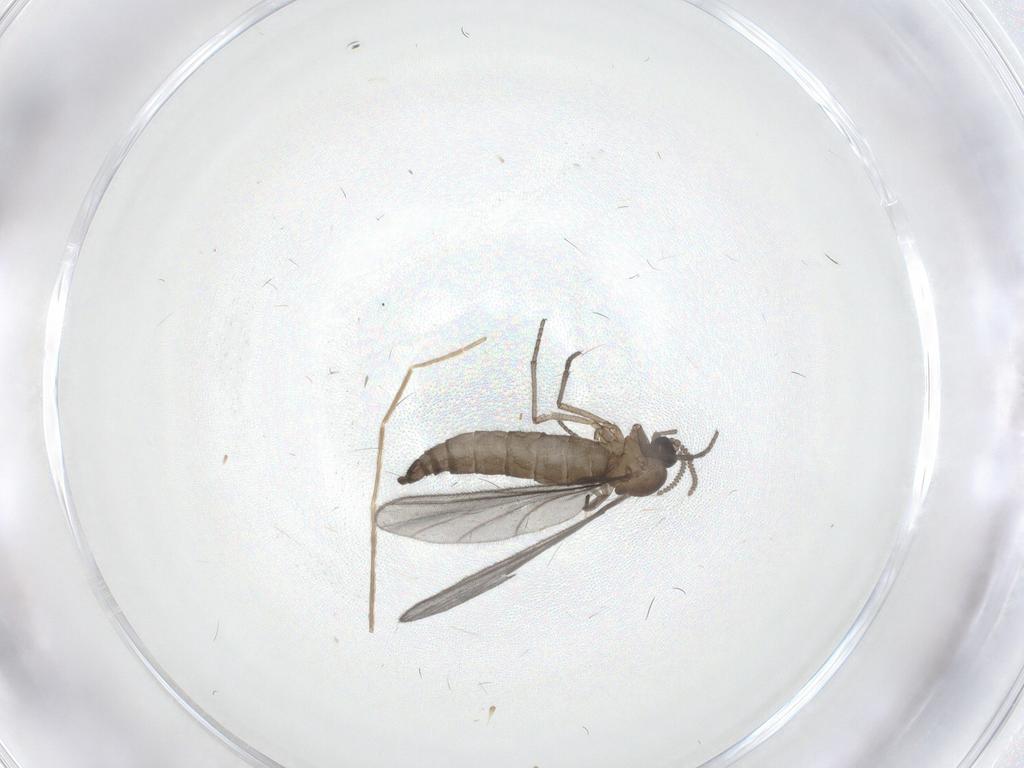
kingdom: Animalia
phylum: Arthropoda
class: Insecta
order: Diptera
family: Sciaridae
